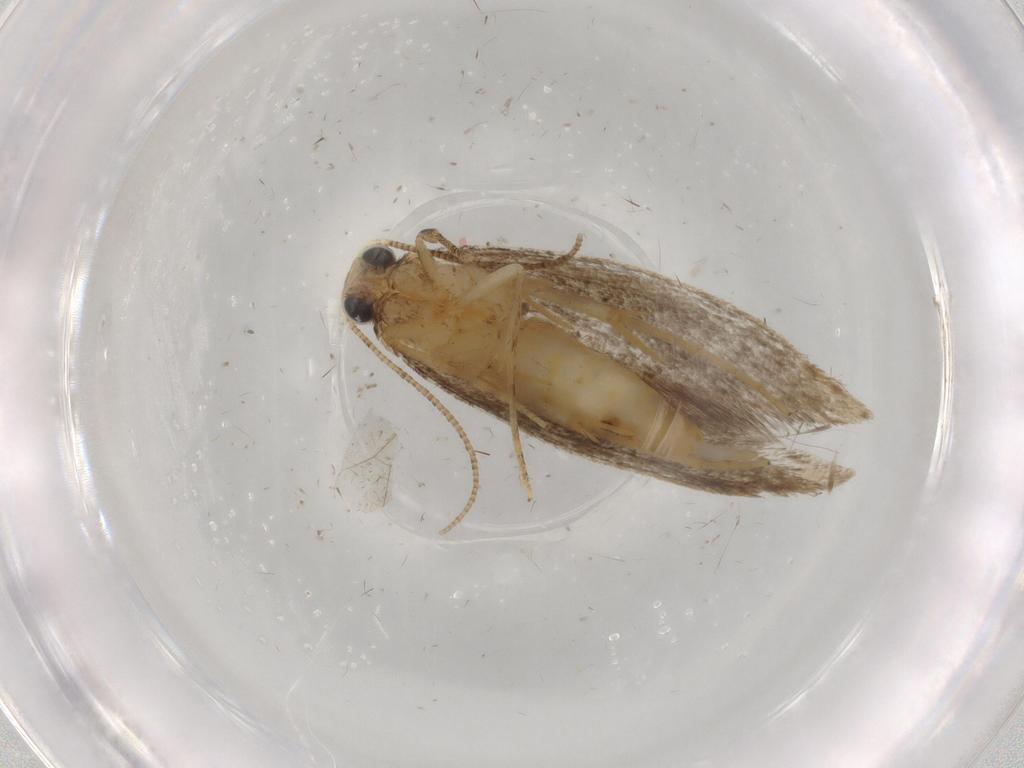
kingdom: Animalia
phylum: Arthropoda
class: Insecta
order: Lepidoptera
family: Tineidae
